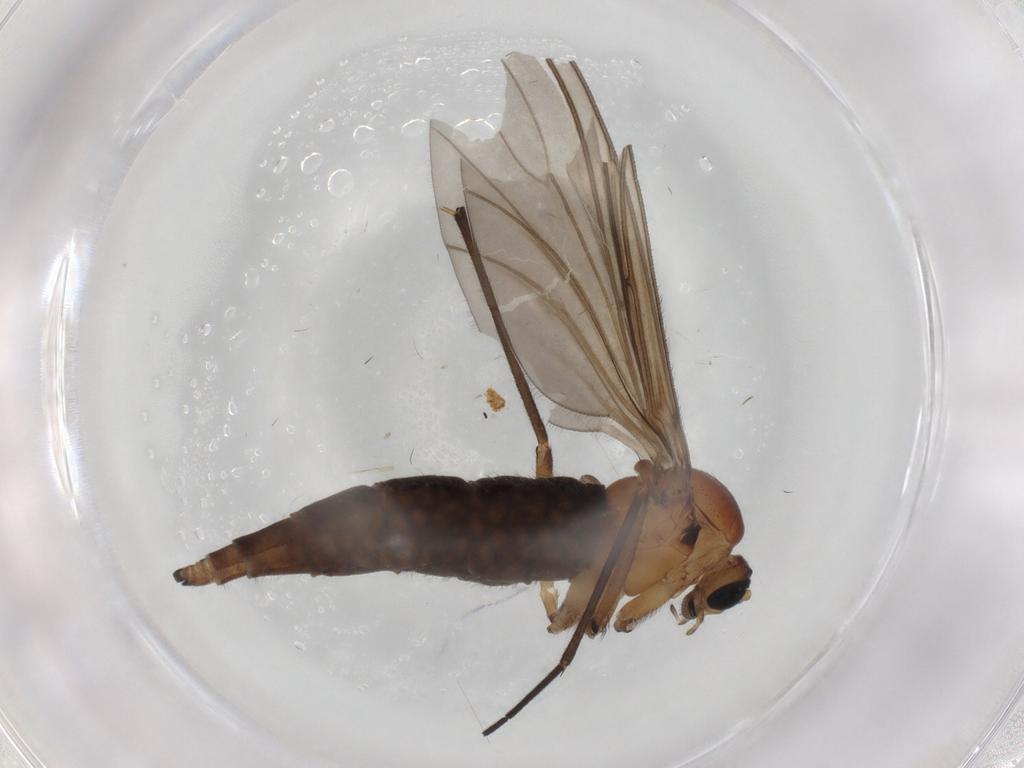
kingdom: Animalia
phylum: Arthropoda
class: Insecta
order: Diptera
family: Sciaridae
